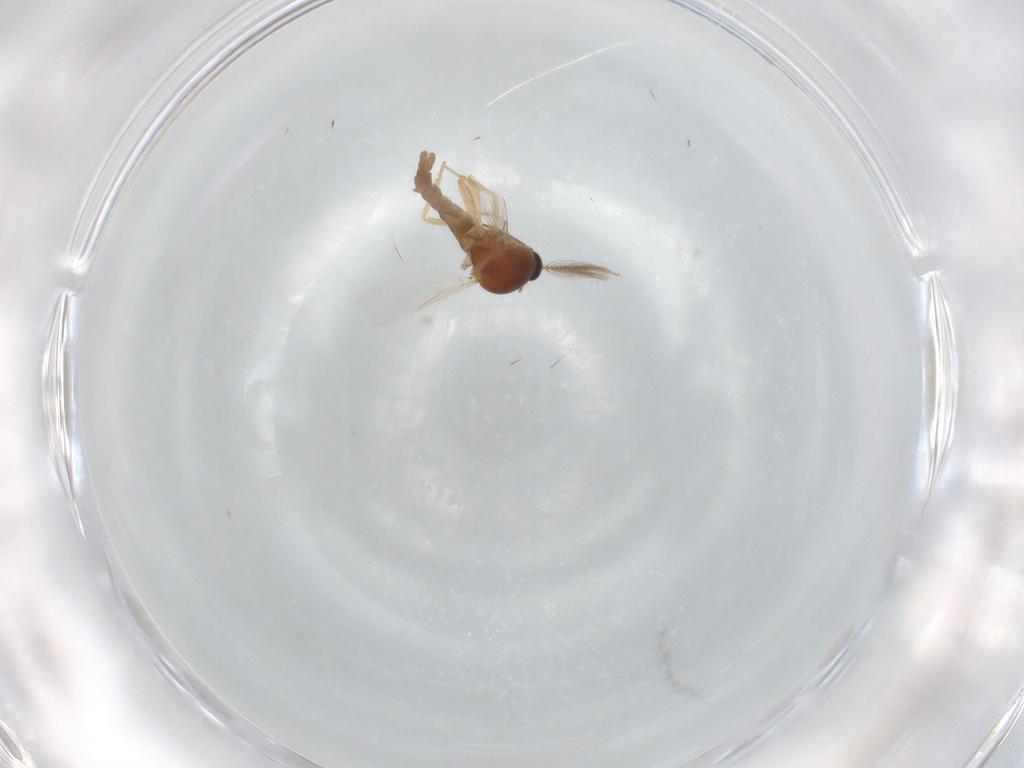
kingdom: Animalia
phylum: Arthropoda
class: Insecta
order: Diptera
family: Ceratopogonidae
